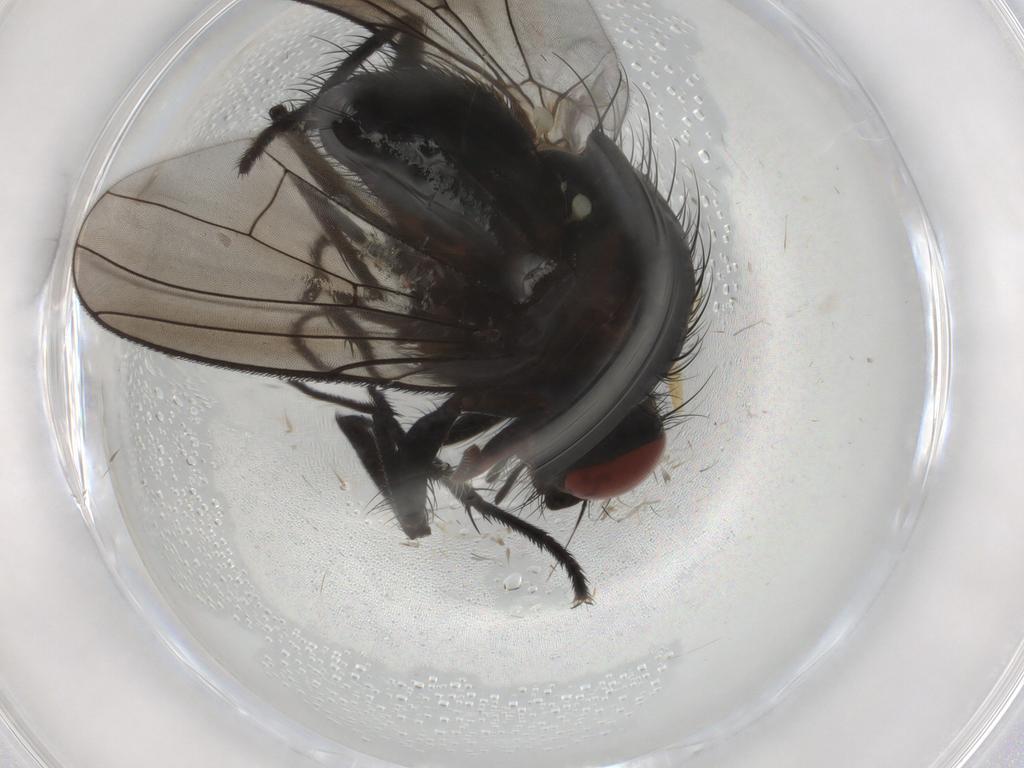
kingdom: Animalia
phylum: Arthropoda
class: Insecta
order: Diptera
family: Anthomyiidae
